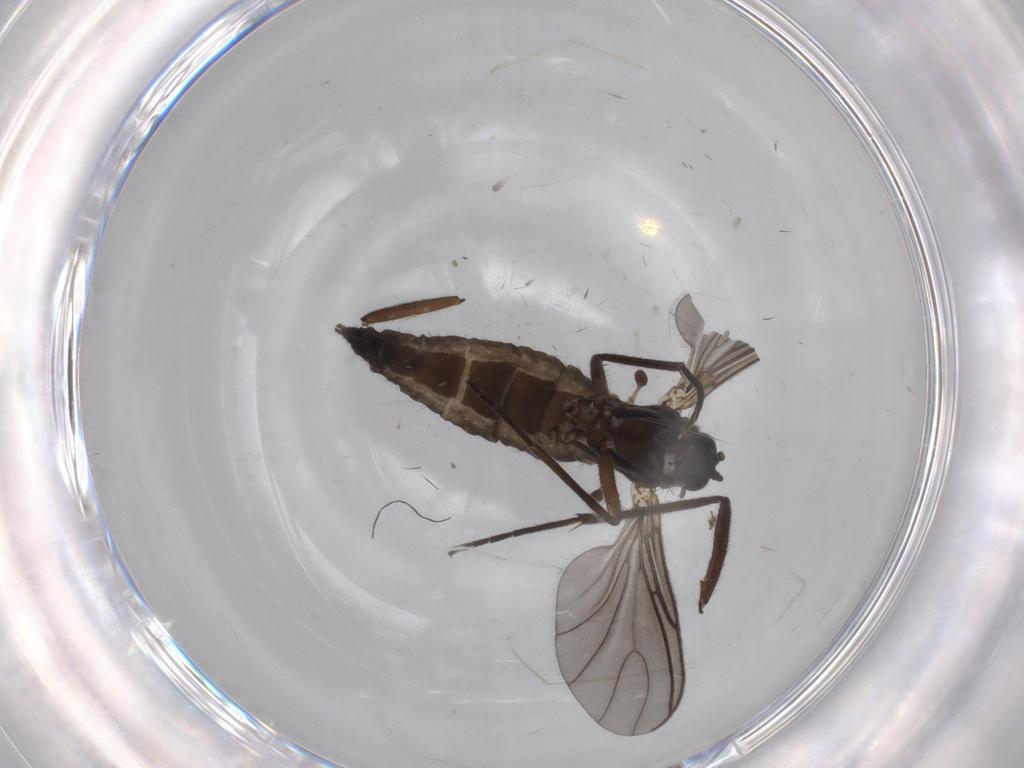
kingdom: Animalia
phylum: Arthropoda
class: Insecta
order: Diptera
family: Sciaridae
